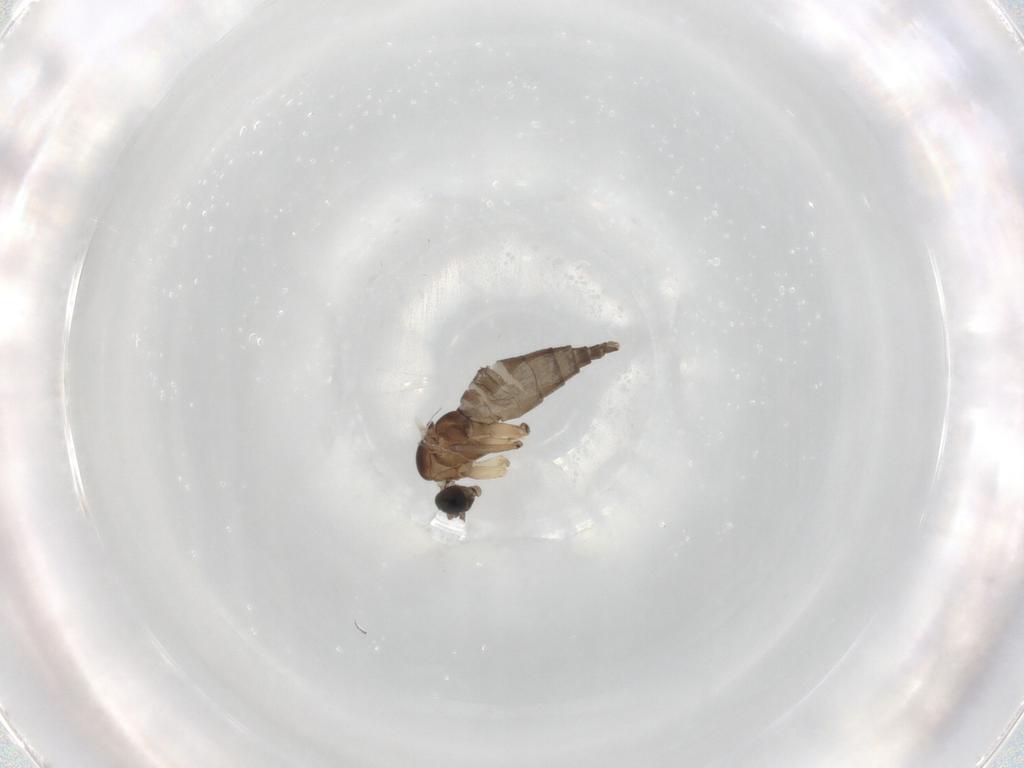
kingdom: Animalia
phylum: Arthropoda
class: Insecta
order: Diptera
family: Sciaridae
